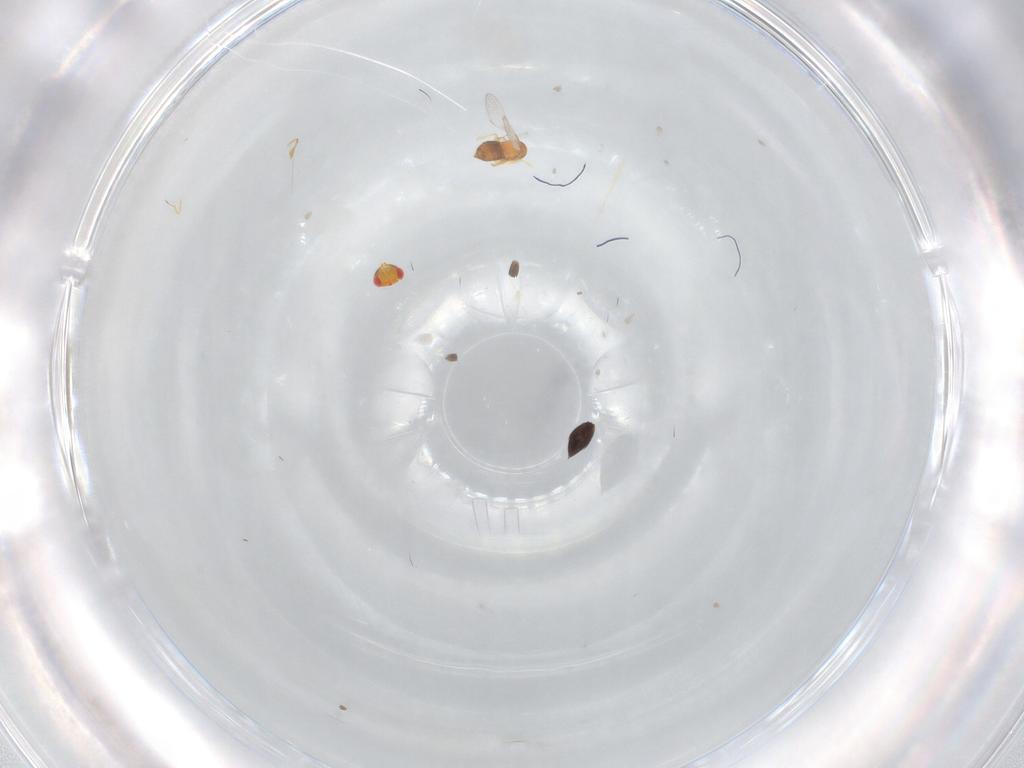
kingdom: Animalia
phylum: Arthropoda
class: Insecta
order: Hymenoptera
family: Scelionidae
